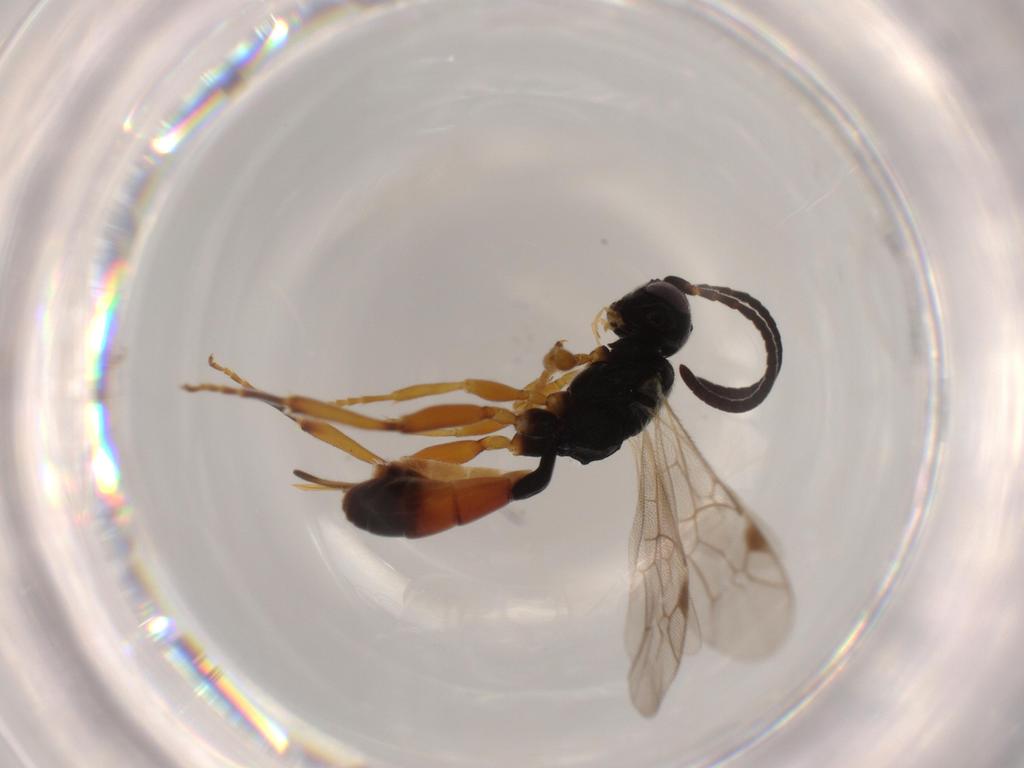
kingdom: Animalia
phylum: Arthropoda
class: Insecta
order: Hymenoptera
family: Ichneumonidae
